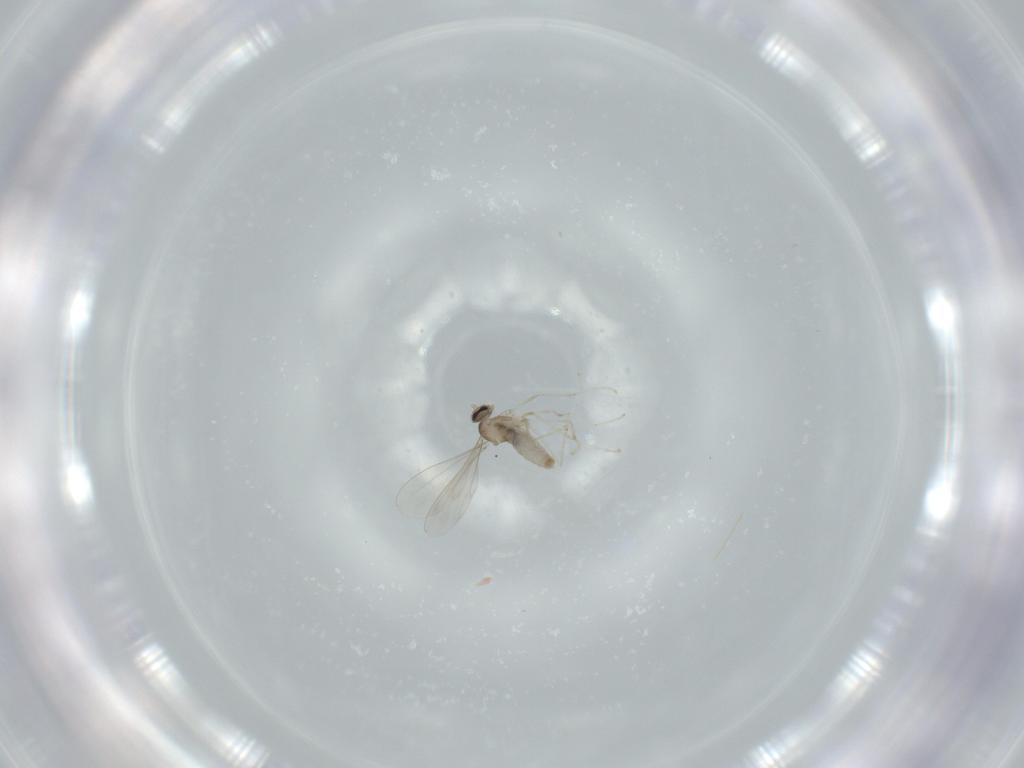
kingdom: Animalia
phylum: Arthropoda
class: Insecta
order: Diptera
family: Cecidomyiidae
